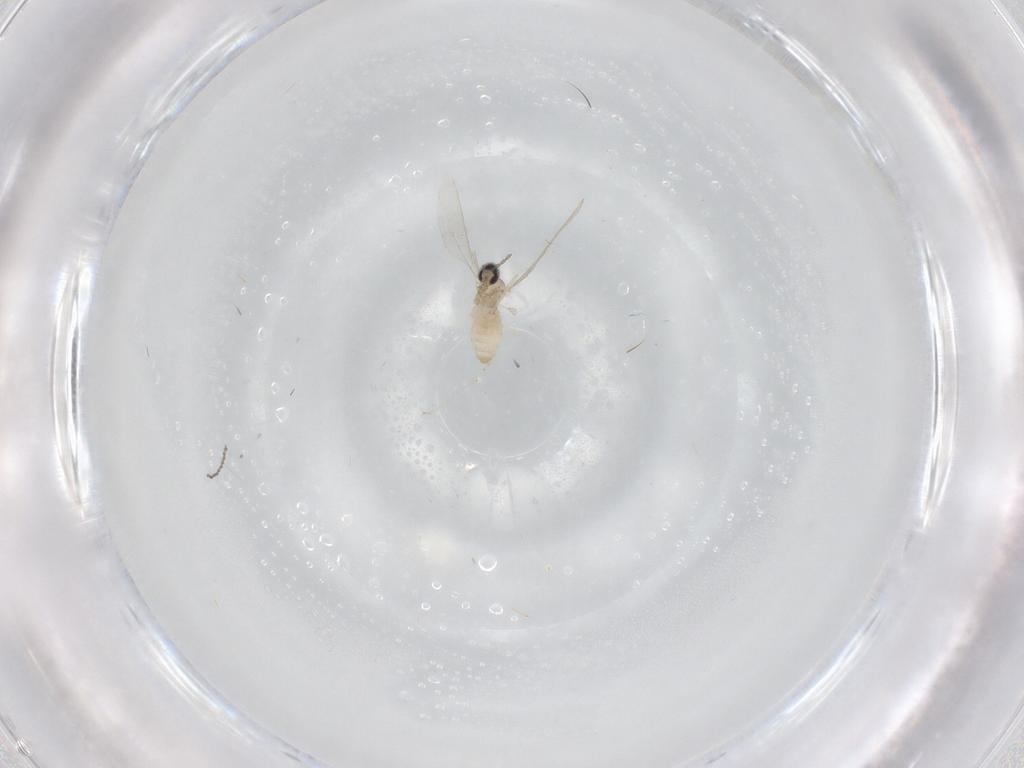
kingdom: Animalia
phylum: Arthropoda
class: Insecta
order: Diptera
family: Cecidomyiidae
